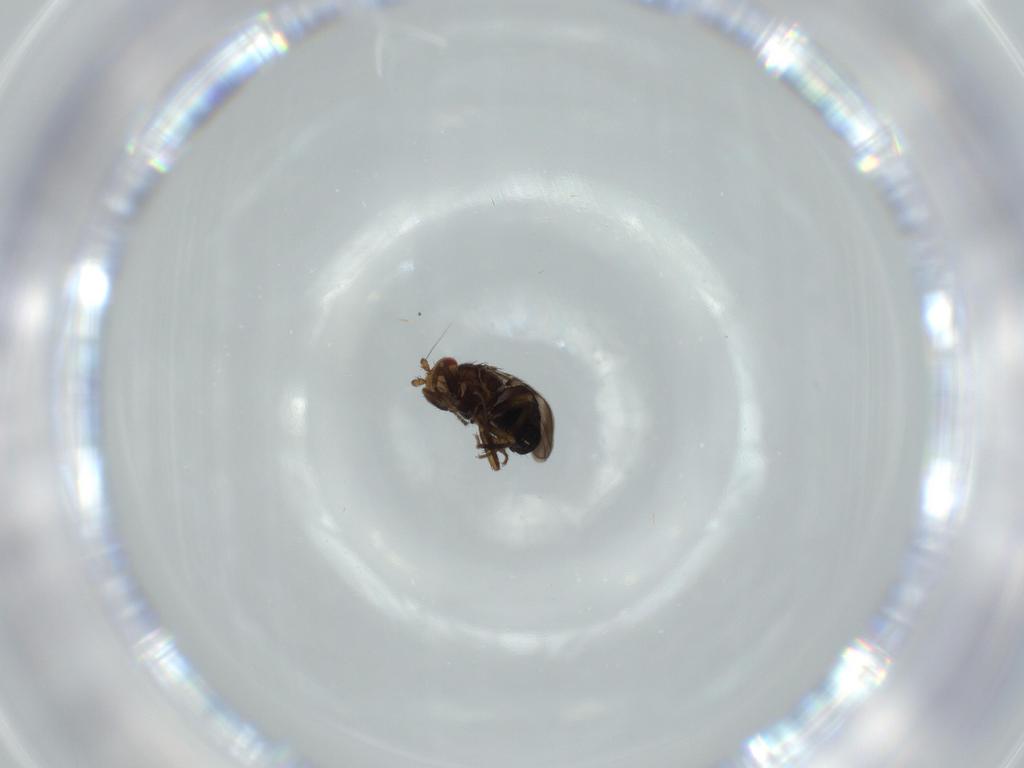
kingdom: Animalia
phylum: Arthropoda
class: Insecta
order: Diptera
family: Sphaeroceridae
